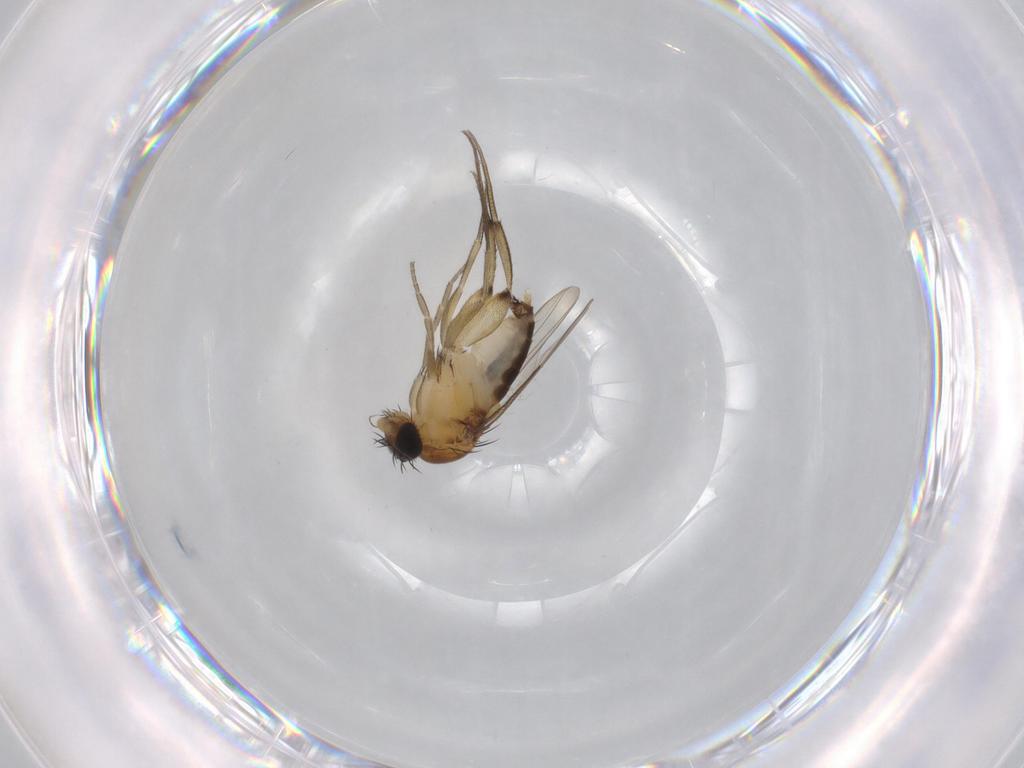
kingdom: Animalia
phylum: Arthropoda
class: Insecta
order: Diptera
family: Phoridae
